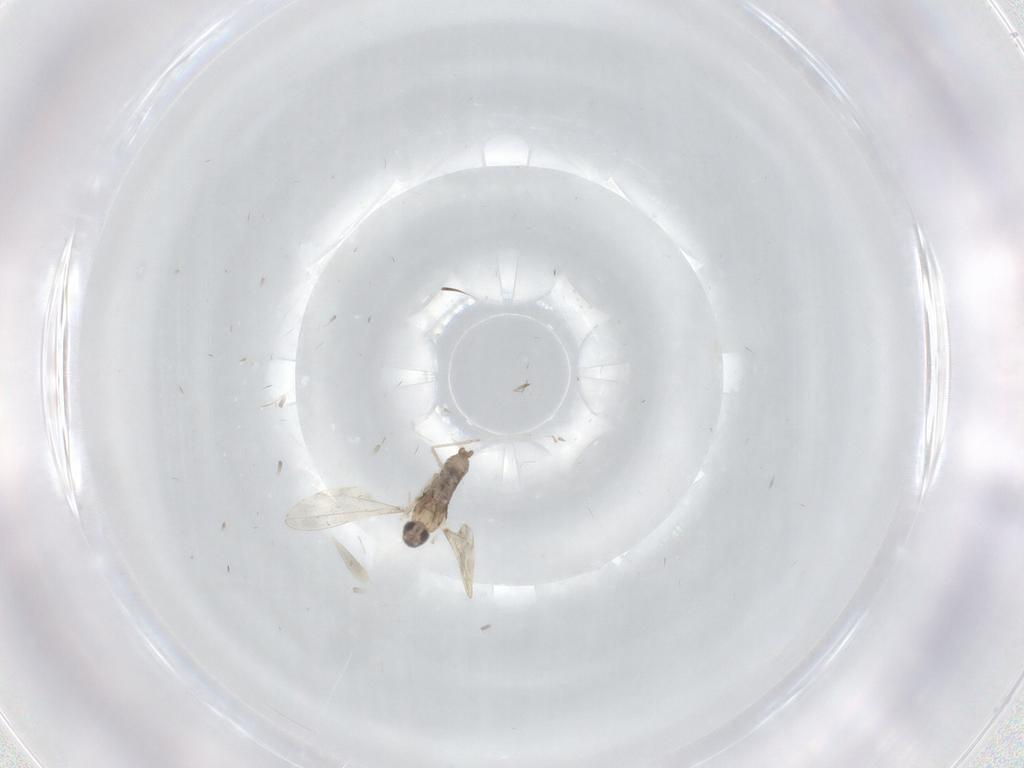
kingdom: Animalia
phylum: Arthropoda
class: Insecta
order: Diptera
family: Cecidomyiidae
